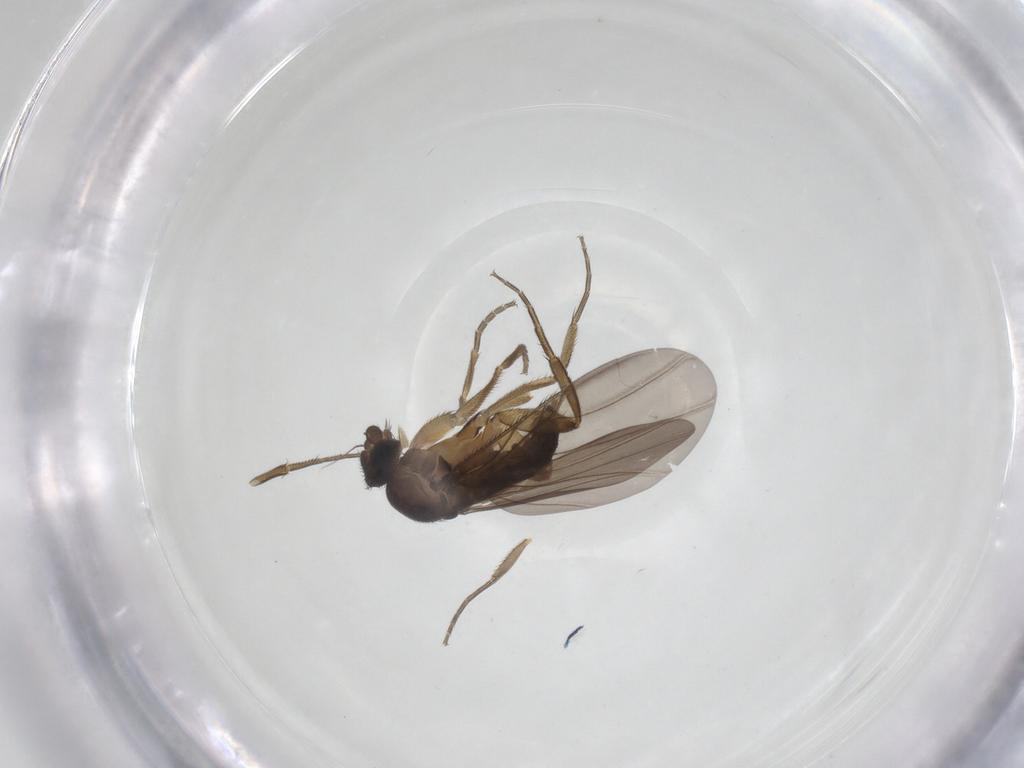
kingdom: Animalia
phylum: Arthropoda
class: Insecta
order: Diptera
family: Phoridae
